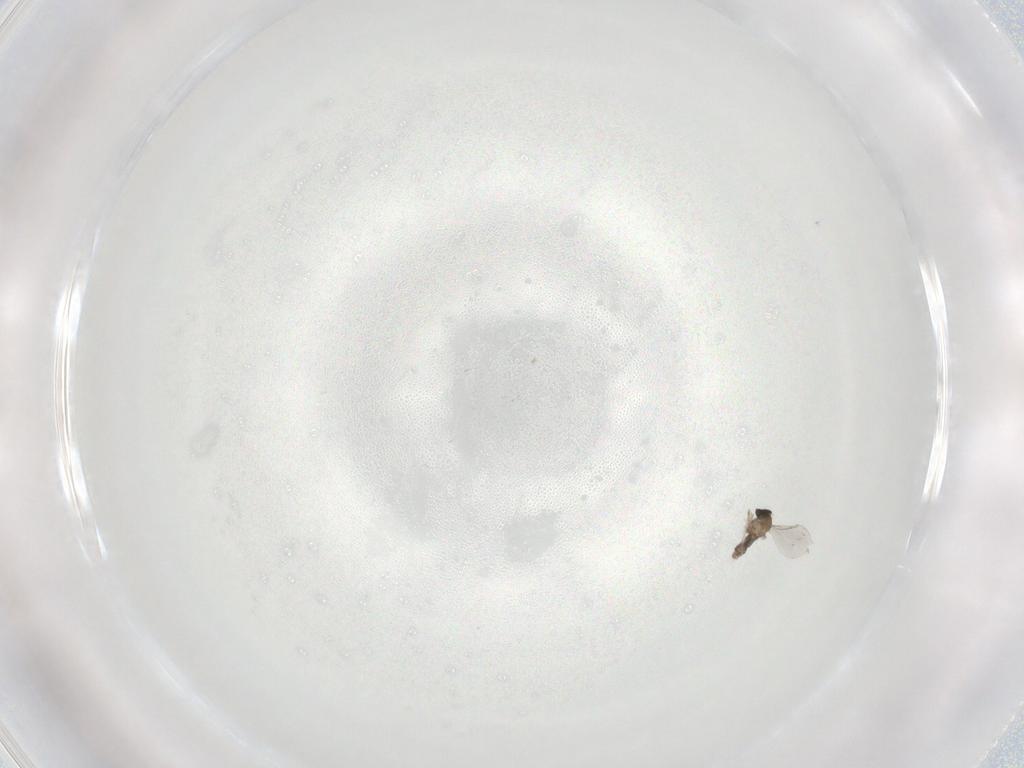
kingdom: Animalia
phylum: Arthropoda
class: Insecta
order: Diptera
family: Cecidomyiidae
